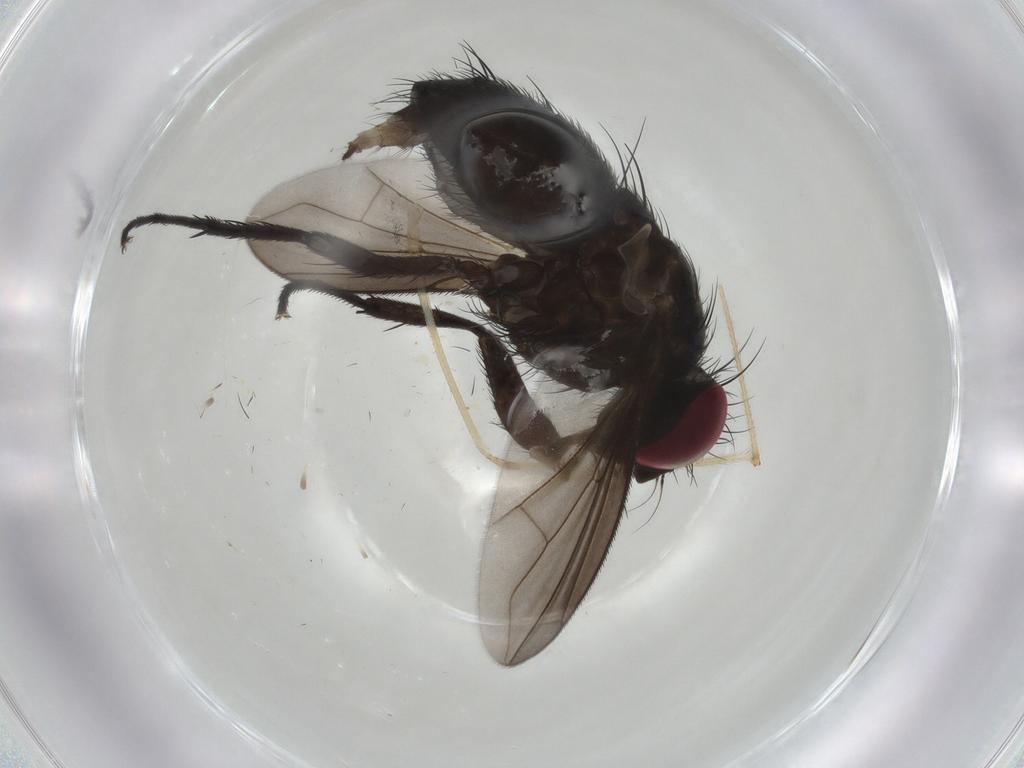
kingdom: Animalia
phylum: Arthropoda
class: Insecta
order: Diptera
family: Calliphoridae
